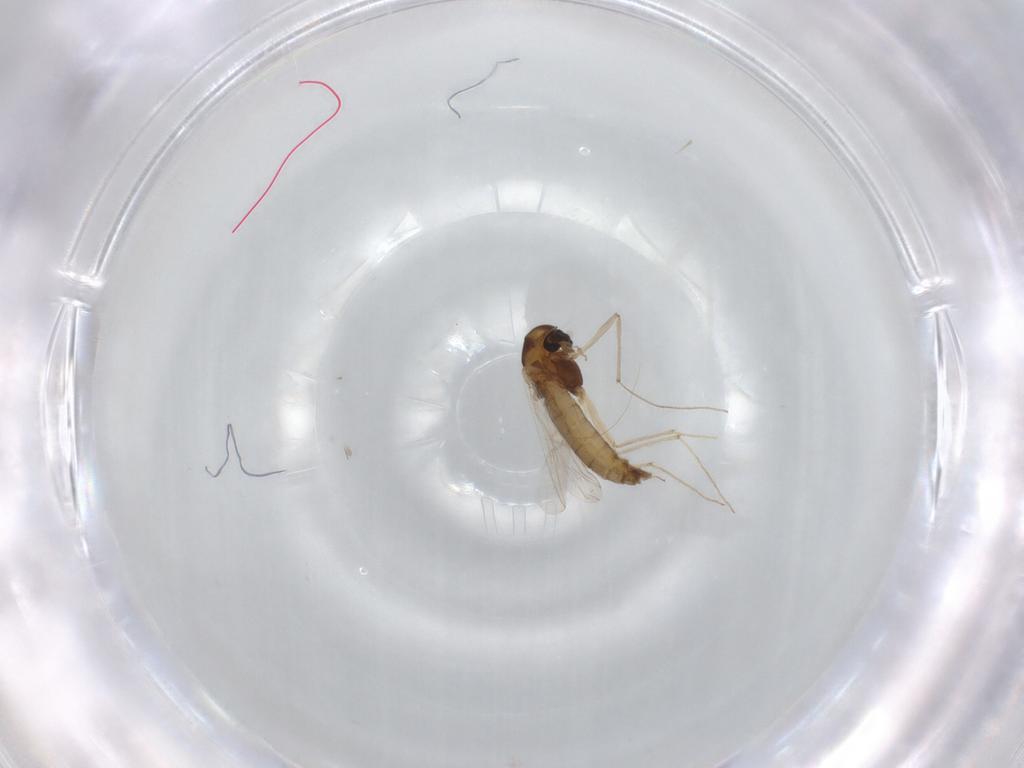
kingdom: Animalia
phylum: Arthropoda
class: Insecta
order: Diptera
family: Chironomidae
